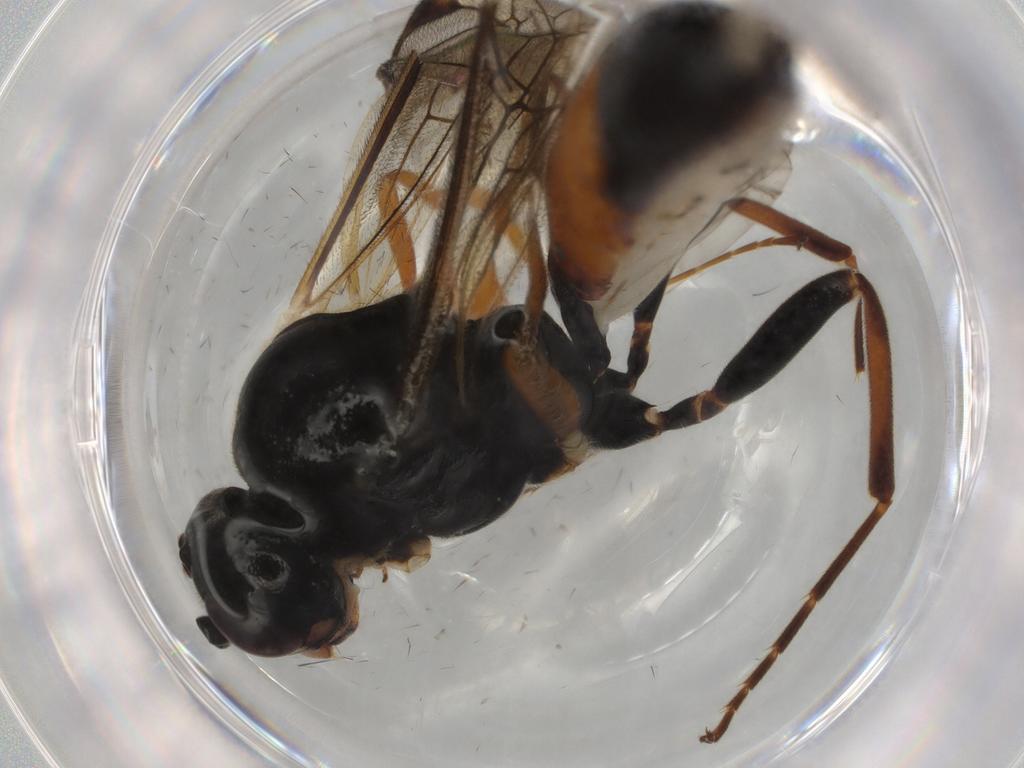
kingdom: Animalia
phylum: Arthropoda
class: Insecta
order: Hymenoptera
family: Ichneumonidae
